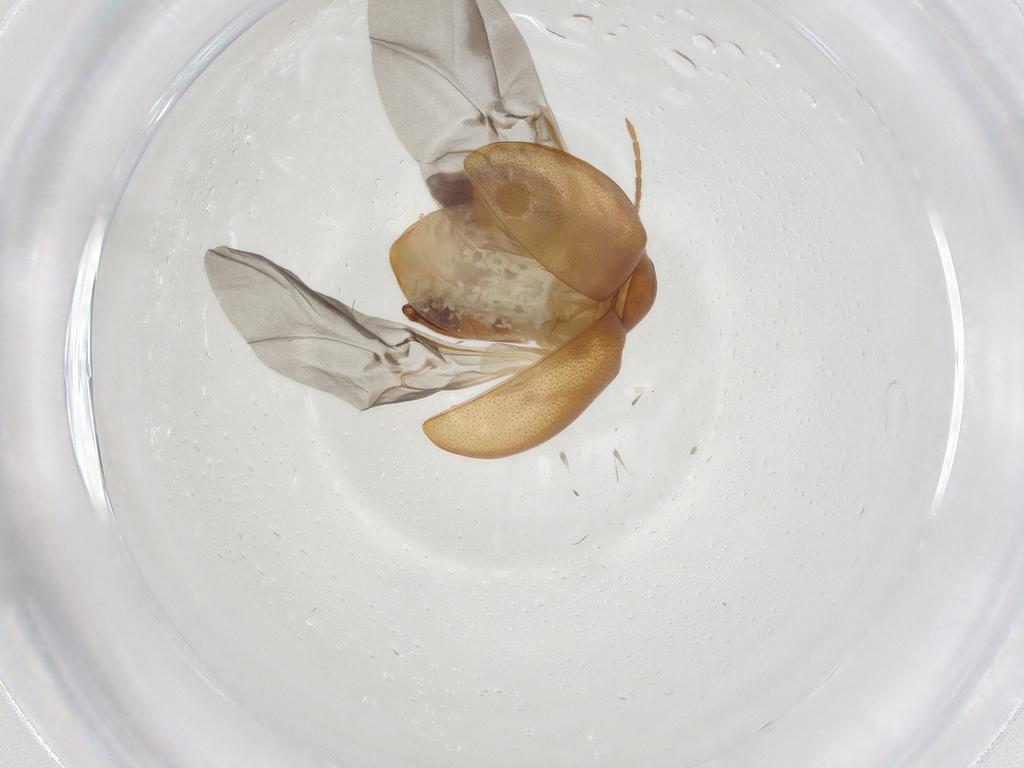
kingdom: Animalia
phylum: Arthropoda
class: Insecta
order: Coleoptera
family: Chrysomelidae
